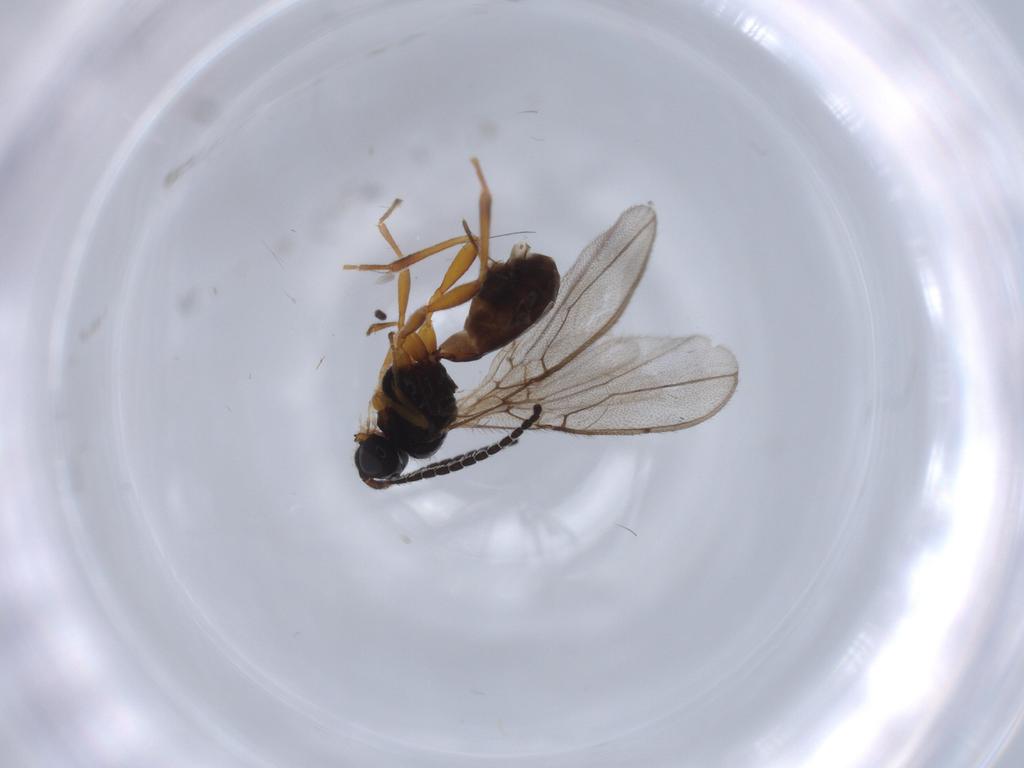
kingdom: Animalia
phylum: Arthropoda
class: Insecta
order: Hymenoptera
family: Braconidae
